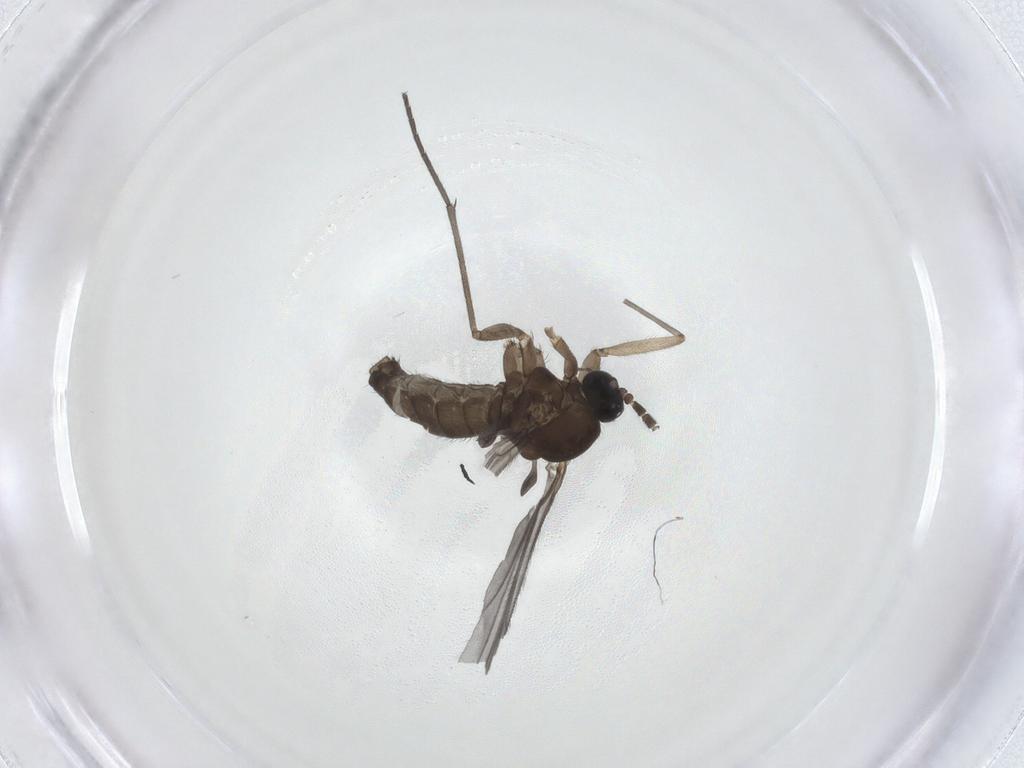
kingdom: Animalia
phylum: Arthropoda
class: Insecta
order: Diptera
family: Sciaridae
